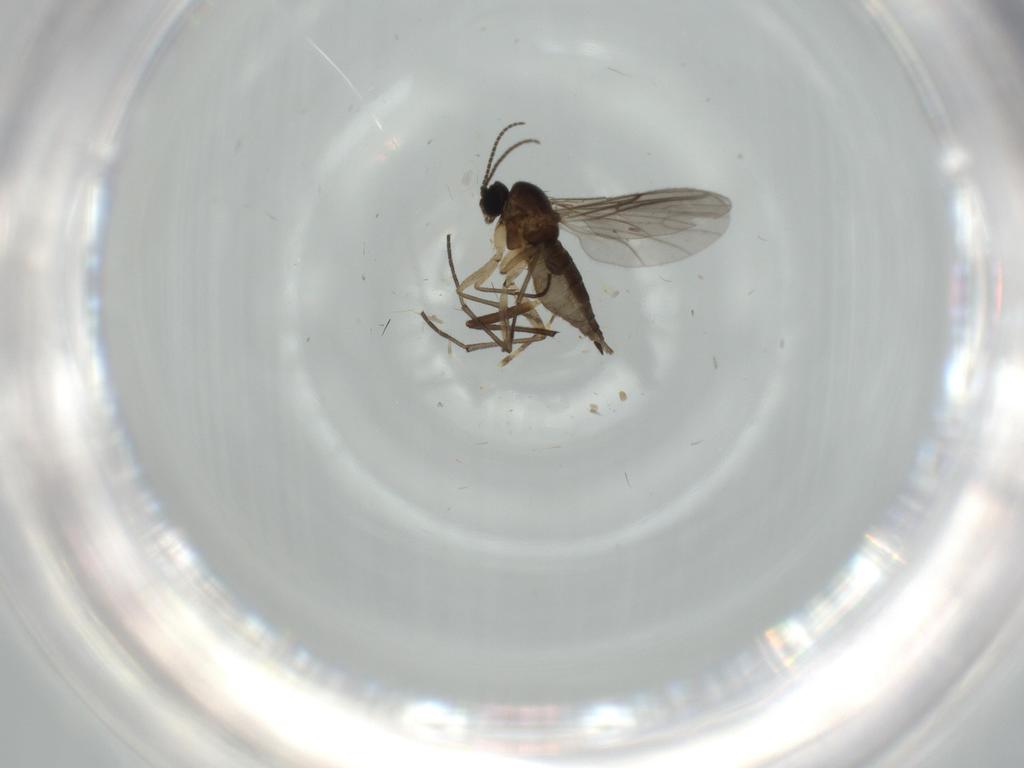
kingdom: Animalia
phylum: Arthropoda
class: Insecta
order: Diptera
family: Sciaridae
